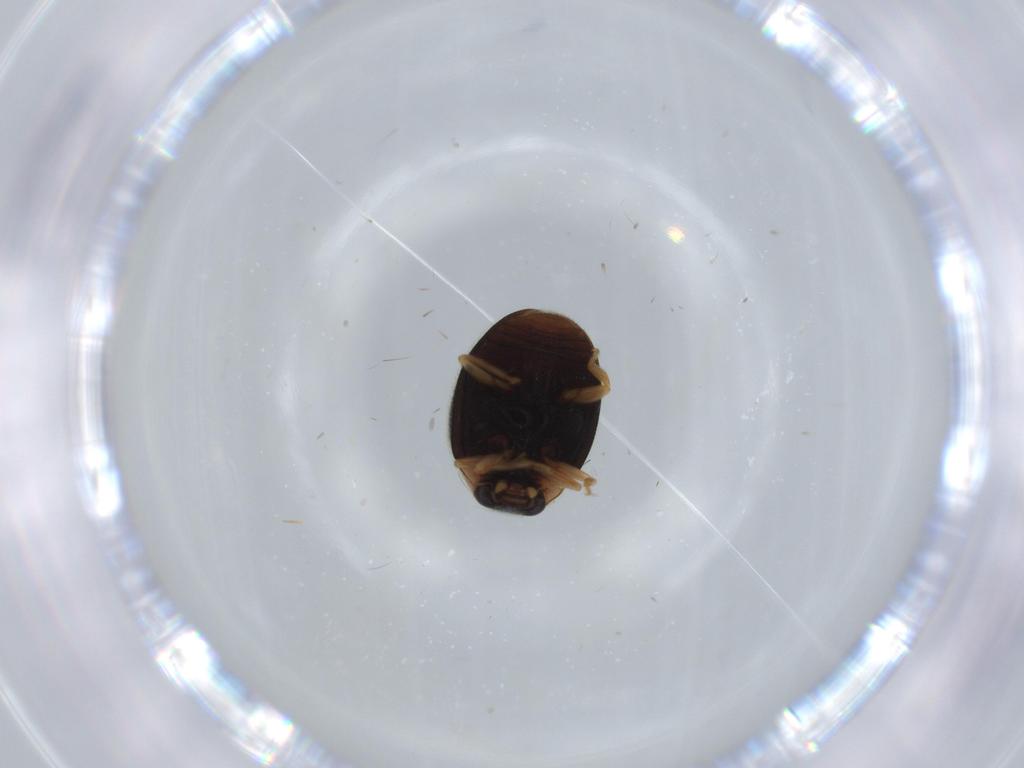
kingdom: Animalia
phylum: Arthropoda
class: Insecta
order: Coleoptera
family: Coccinellidae
